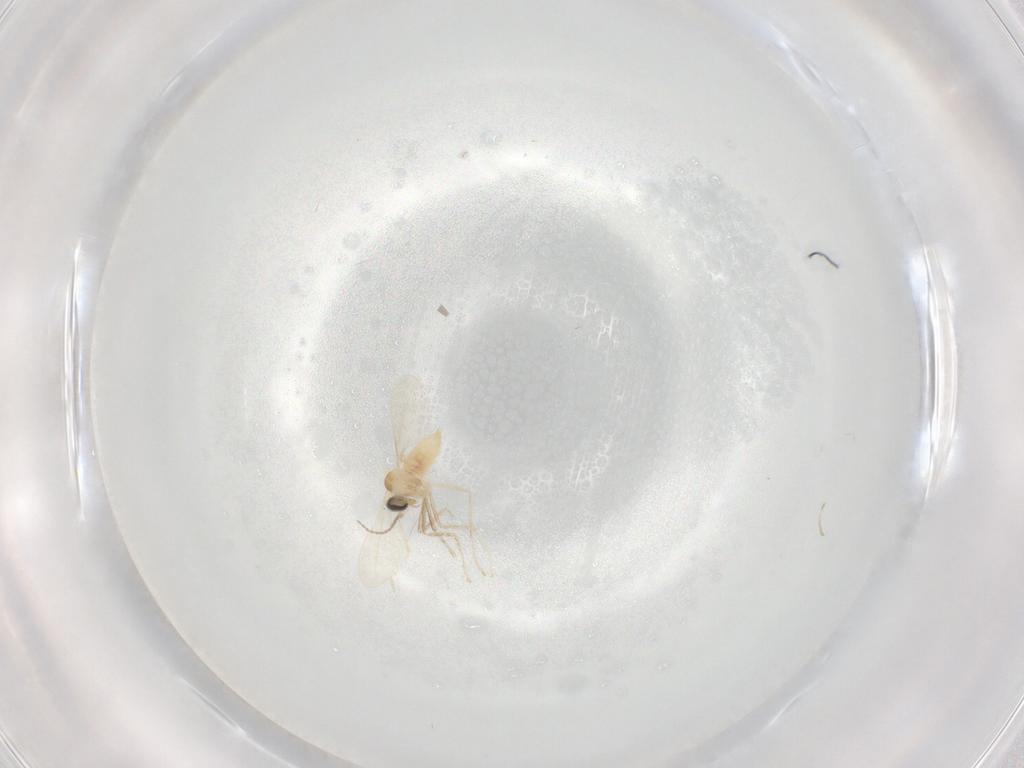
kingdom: Animalia
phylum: Arthropoda
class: Insecta
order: Diptera
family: Cecidomyiidae
